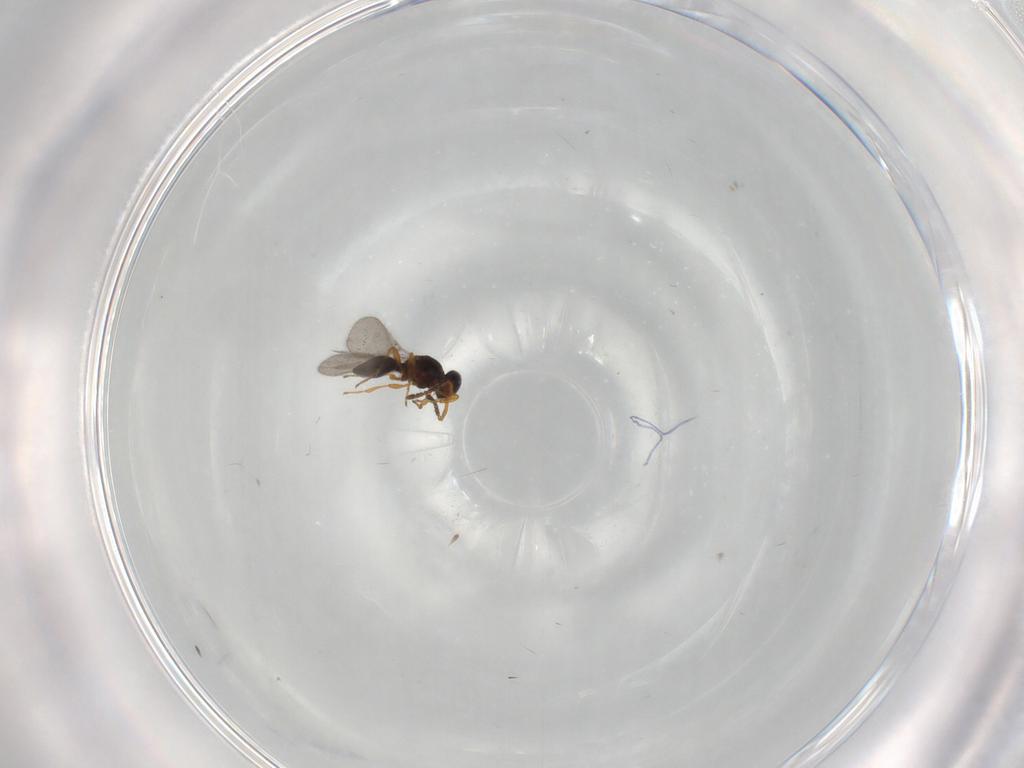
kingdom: Animalia
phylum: Arthropoda
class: Insecta
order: Hymenoptera
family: Platygastridae
